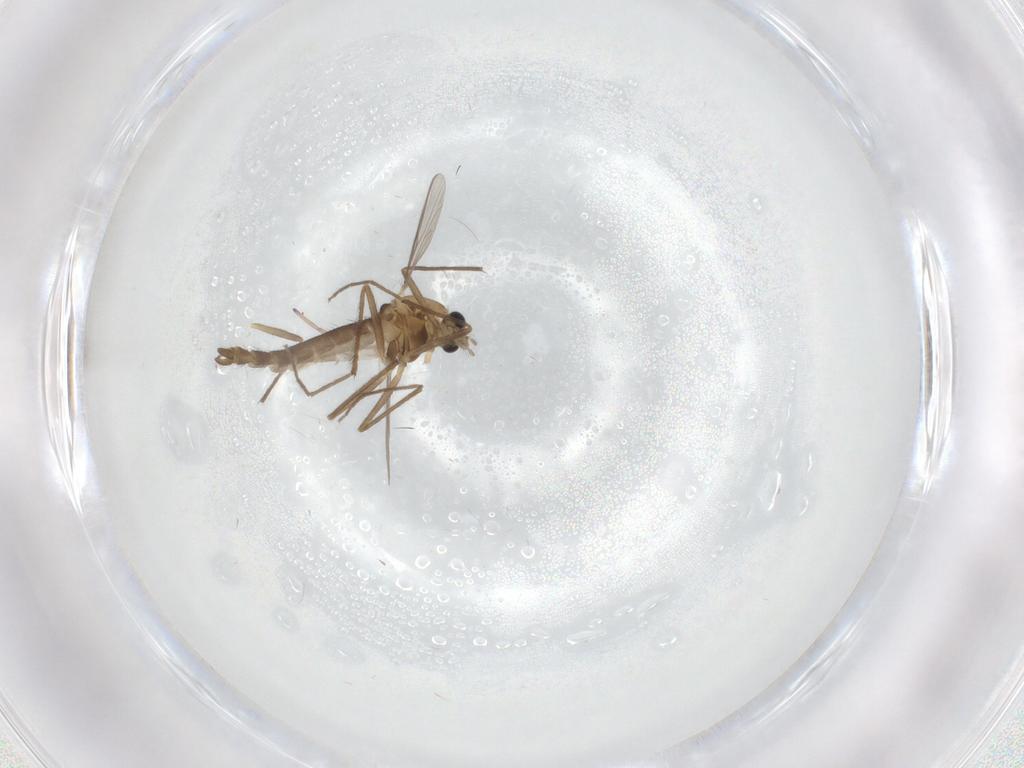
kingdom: Animalia
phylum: Arthropoda
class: Insecta
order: Diptera
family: Chironomidae
